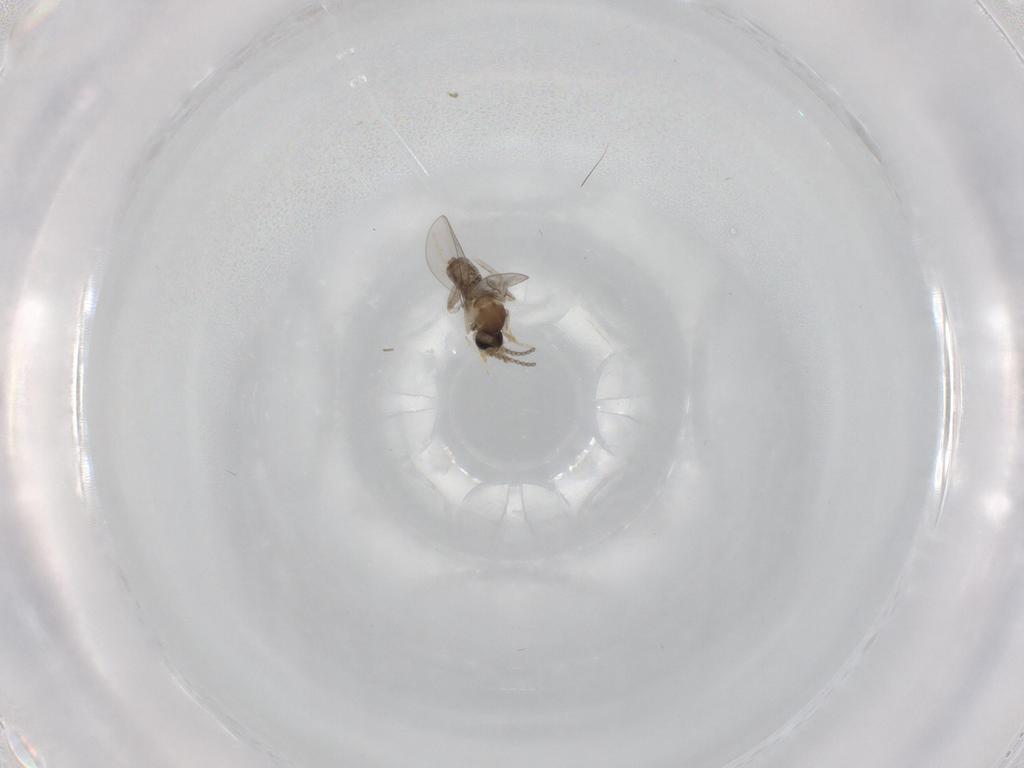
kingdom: Animalia
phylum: Arthropoda
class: Insecta
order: Diptera
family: Cecidomyiidae
